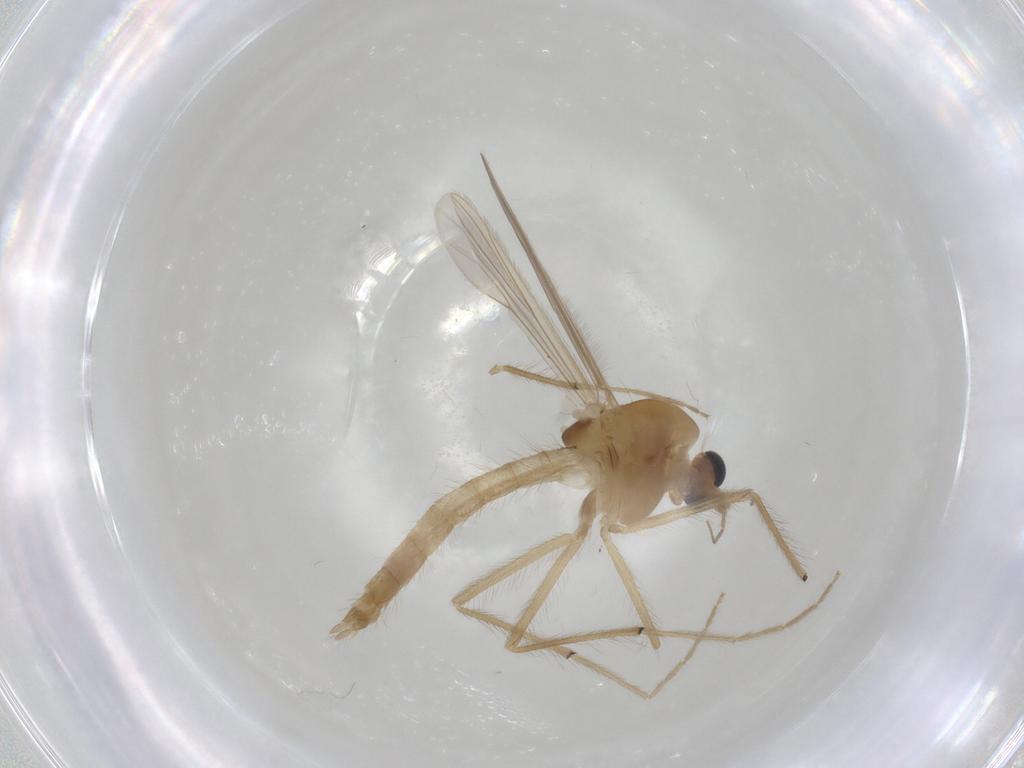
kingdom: Animalia
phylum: Arthropoda
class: Insecta
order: Diptera
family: Chironomidae
